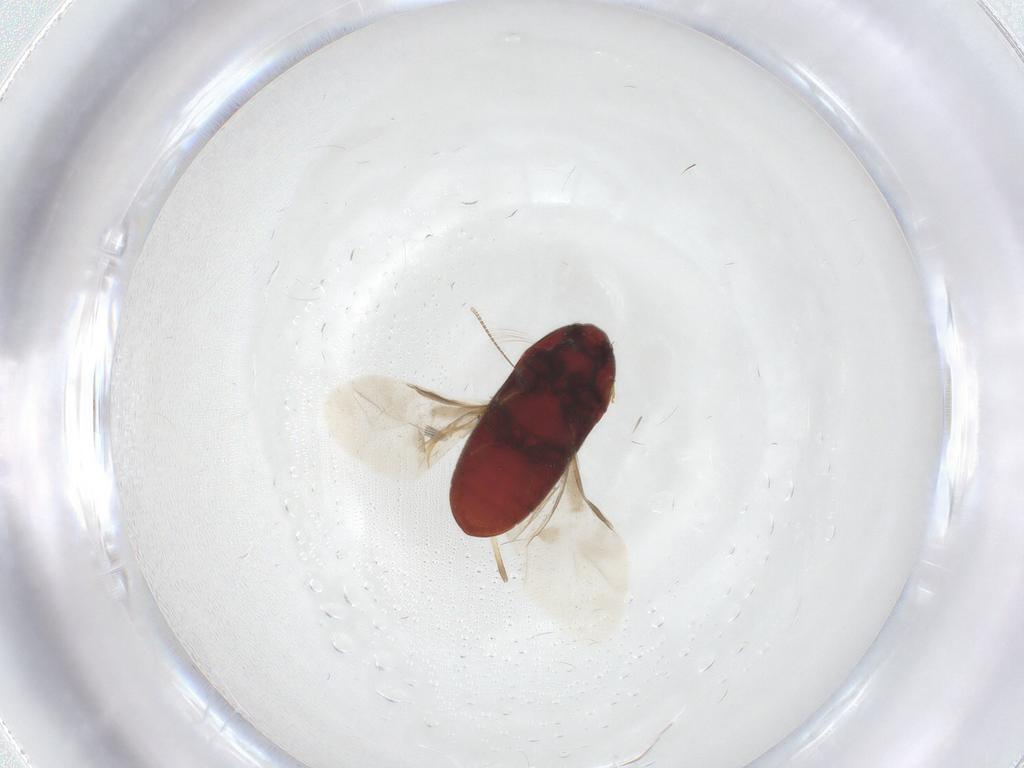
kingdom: Animalia
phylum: Arthropoda
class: Insecta
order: Coleoptera
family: Throscidae
